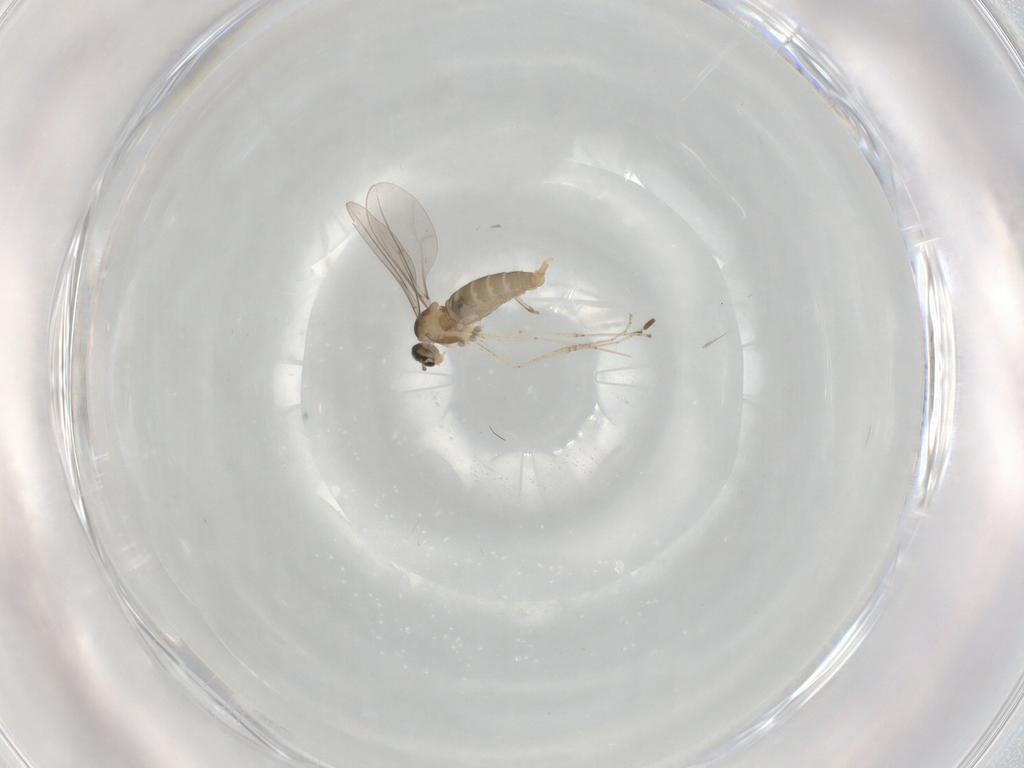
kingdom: Animalia
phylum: Arthropoda
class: Insecta
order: Diptera
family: Cecidomyiidae
